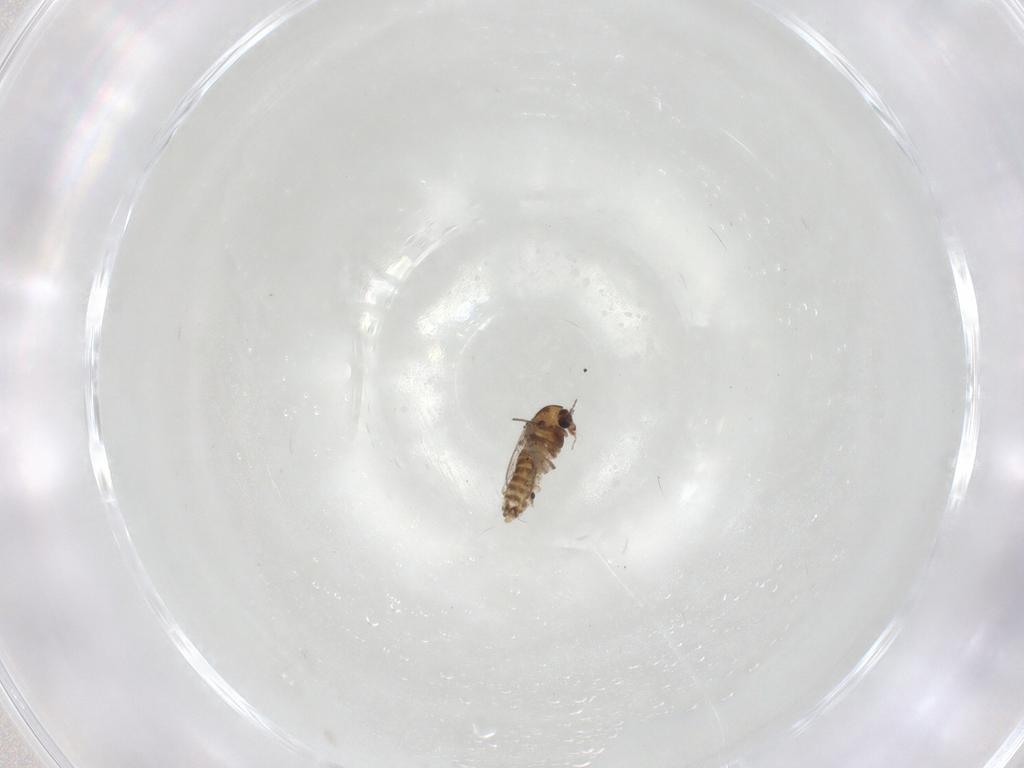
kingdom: Animalia
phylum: Arthropoda
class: Insecta
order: Diptera
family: Chironomidae
